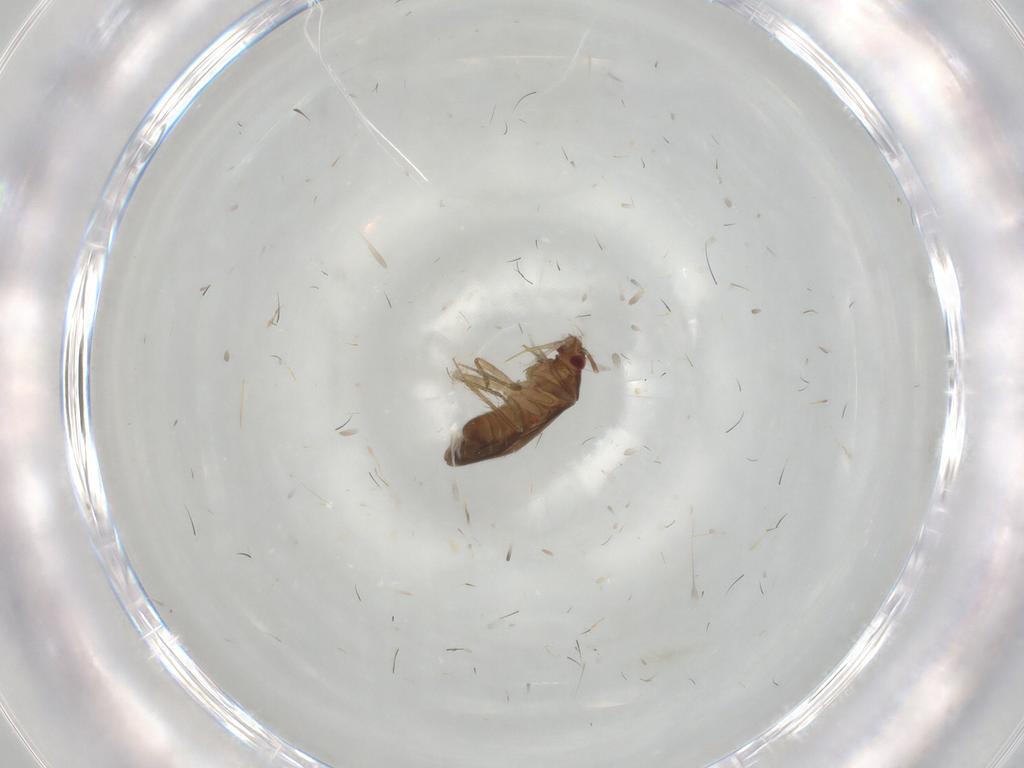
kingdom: Animalia
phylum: Arthropoda
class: Insecta
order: Hemiptera
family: Ceratocombidae
